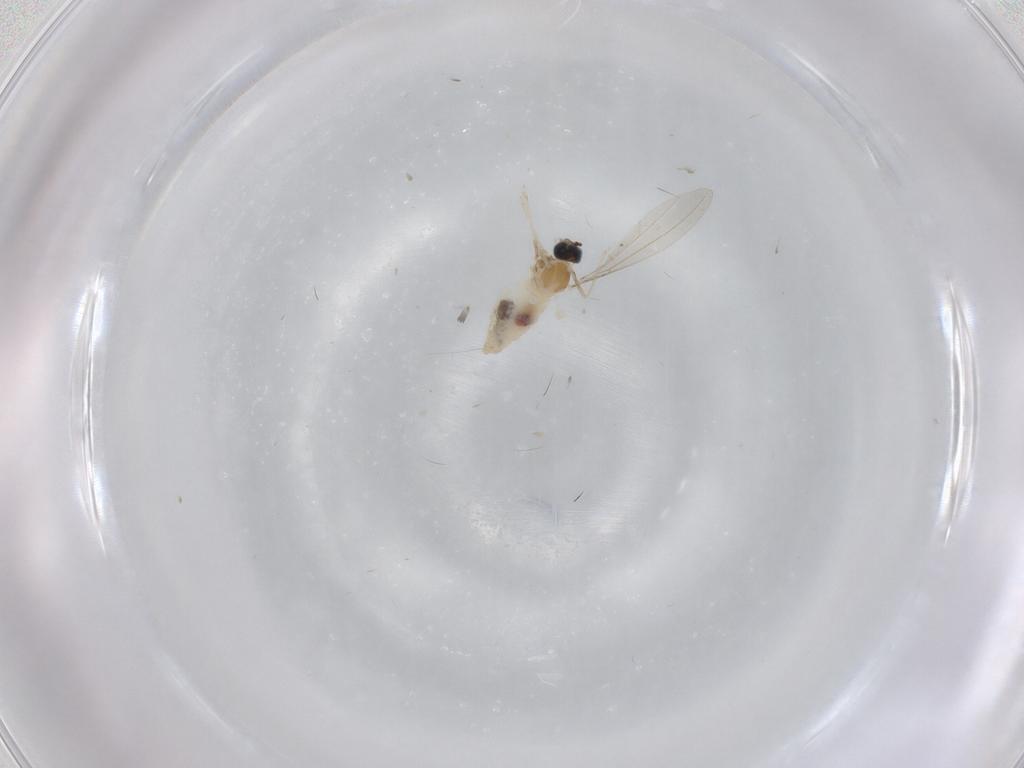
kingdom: Animalia
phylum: Arthropoda
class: Insecta
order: Diptera
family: Cecidomyiidae
